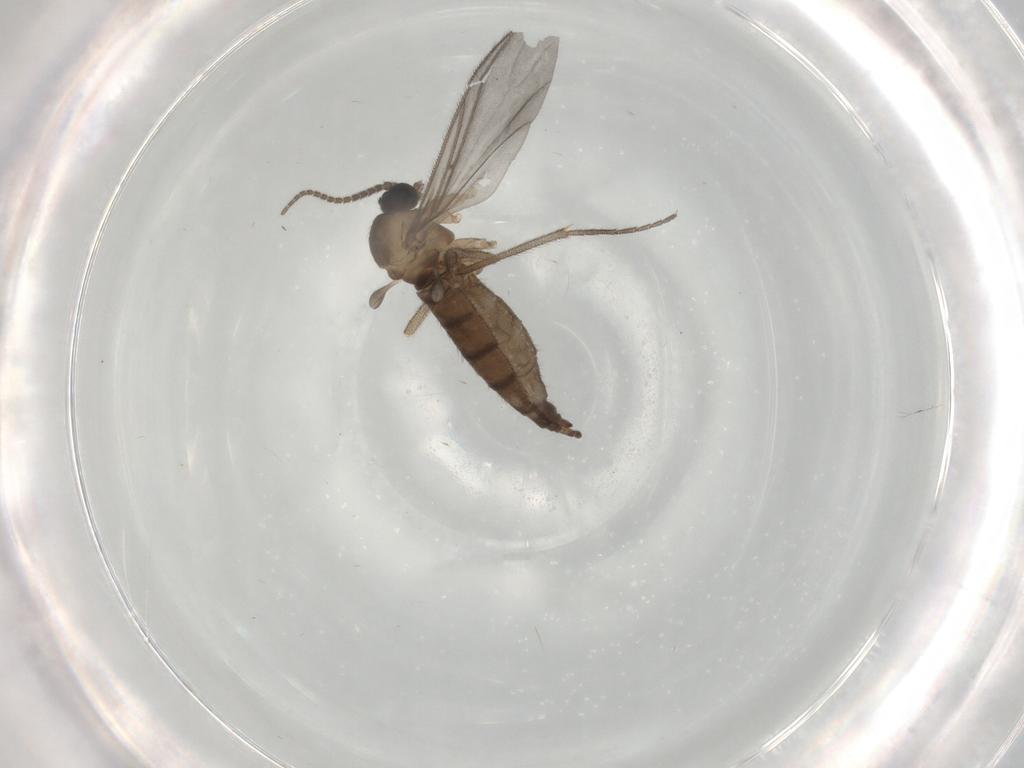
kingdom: Animalia
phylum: Arthropoda
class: Insecta
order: Diptera
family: Sciaridae
